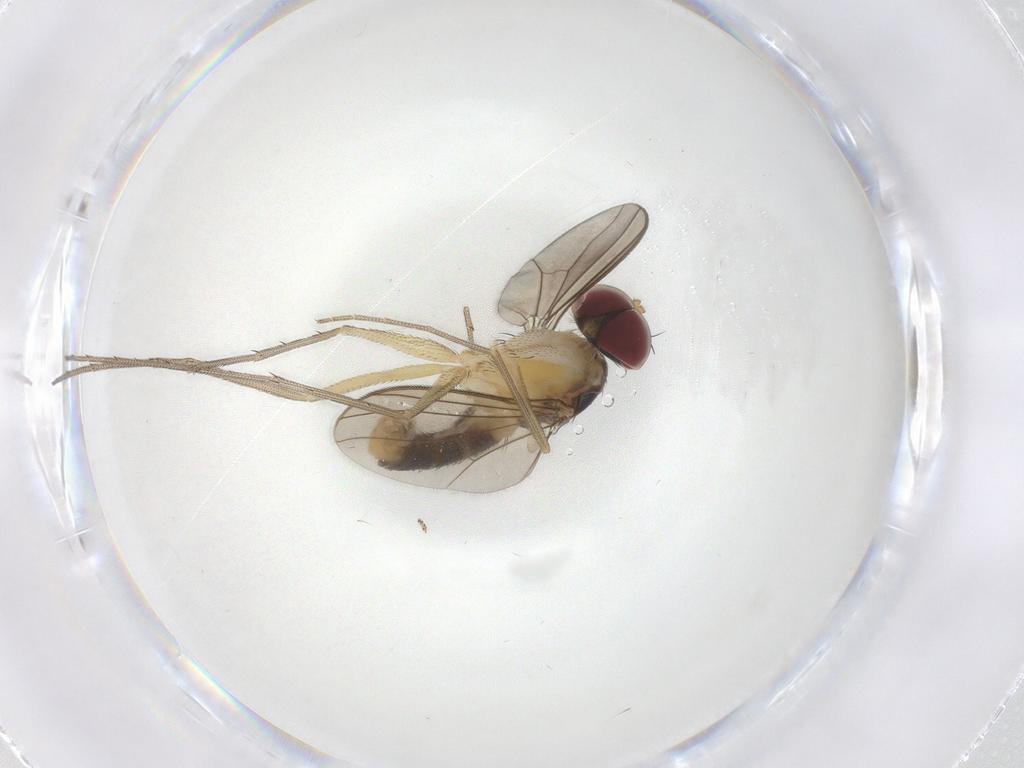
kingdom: Animalia
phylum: Arthropoda
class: Insecta
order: Diptera
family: Dolichopodidae
